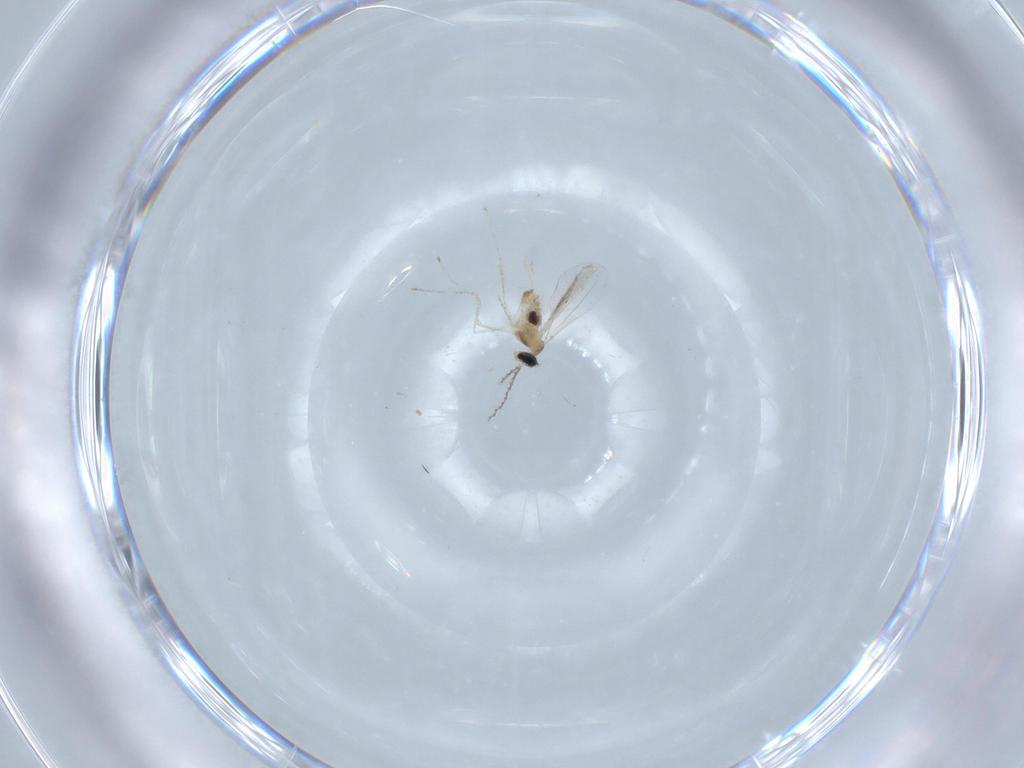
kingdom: Animalia
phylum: Arthropoda
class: Insecta
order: Diptera
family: Cecidomyiidae
